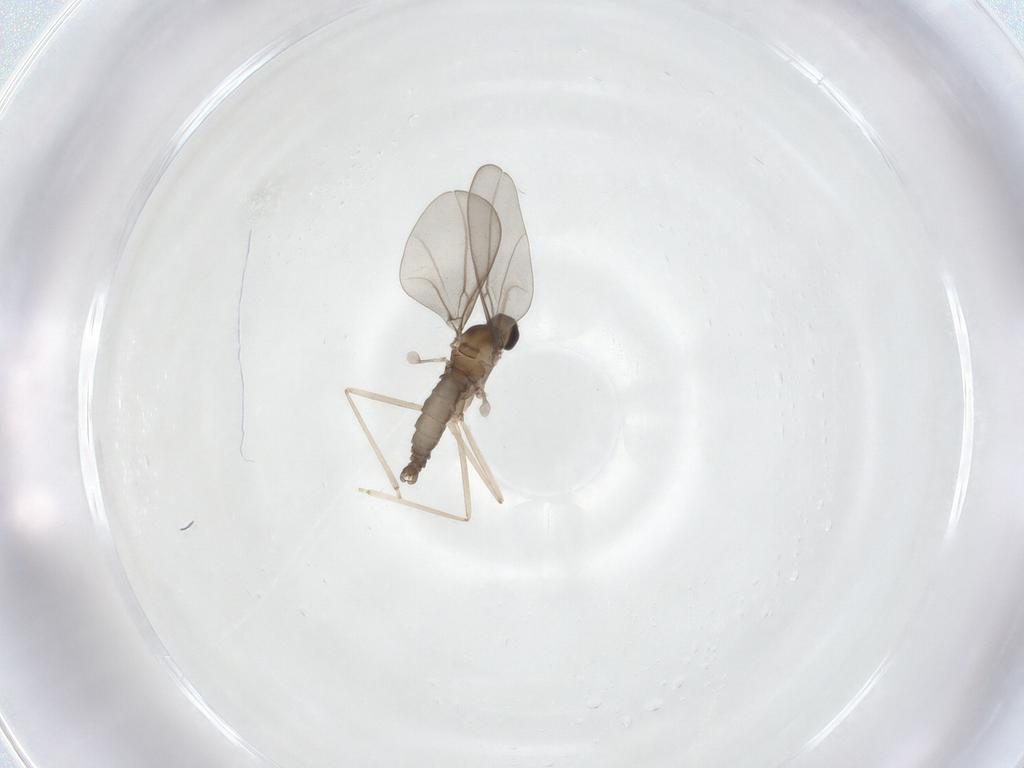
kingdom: Animalia
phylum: Arthropoda
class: Insecta
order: Diptera
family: Cecidomyiidae
